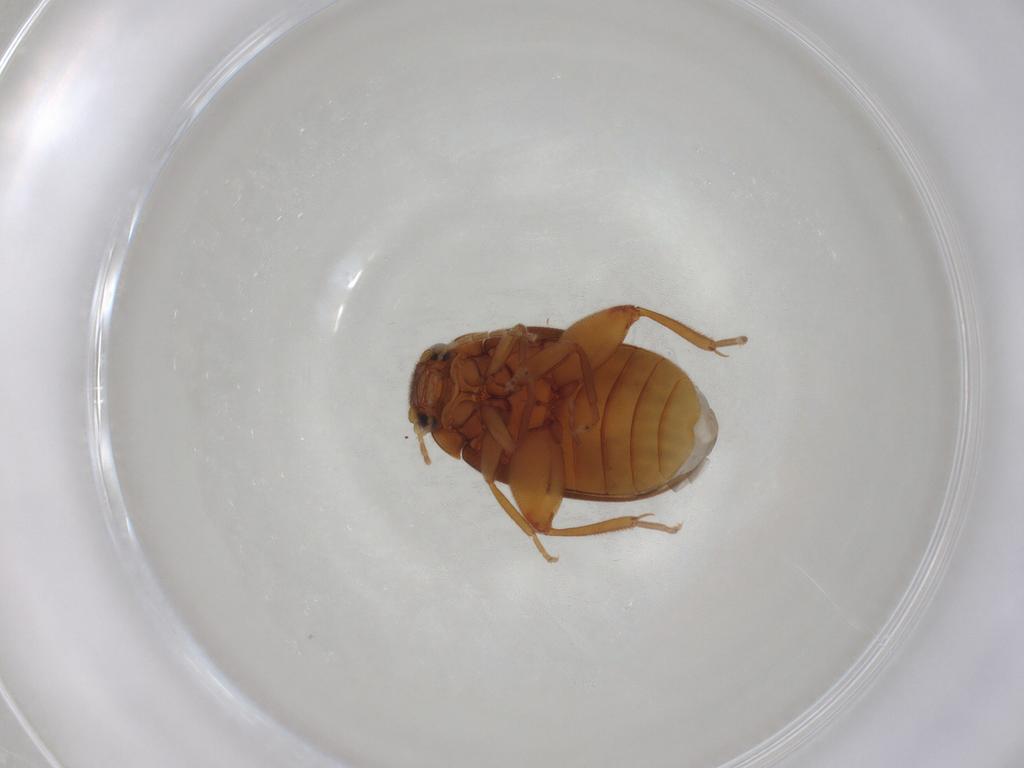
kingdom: Animalia
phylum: Arthropoda
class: Insecta
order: Coleoptera
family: Scirtidae
